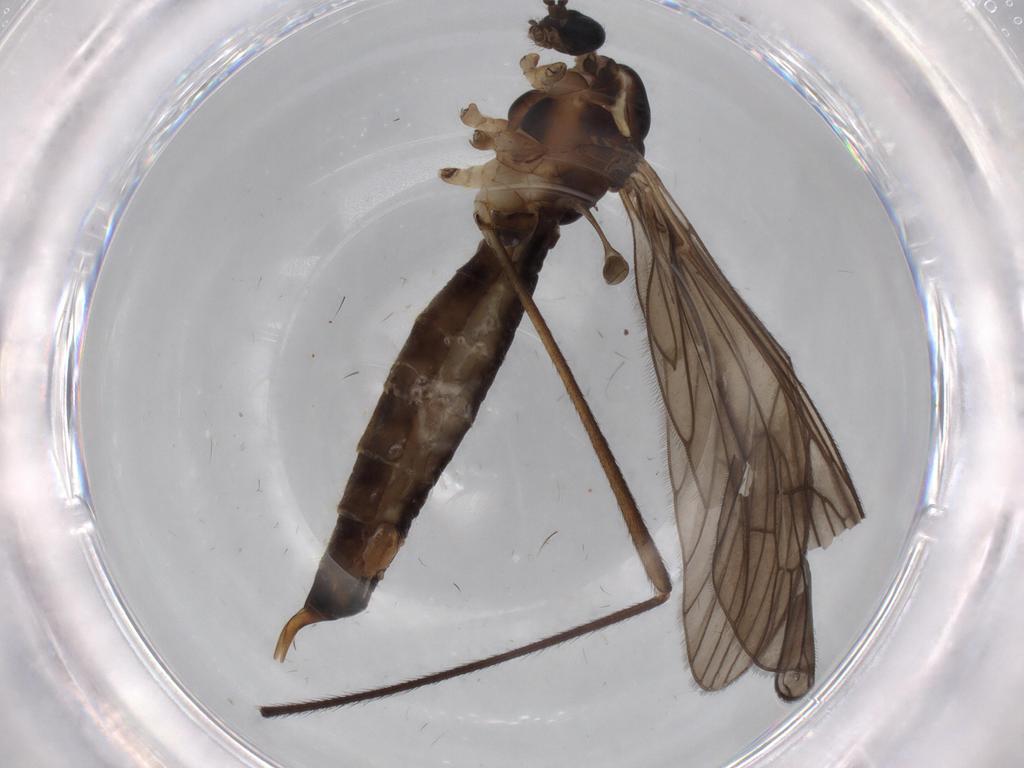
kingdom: Animalia
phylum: Arthropoda
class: Insecta
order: Diptera
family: Limoniidae
